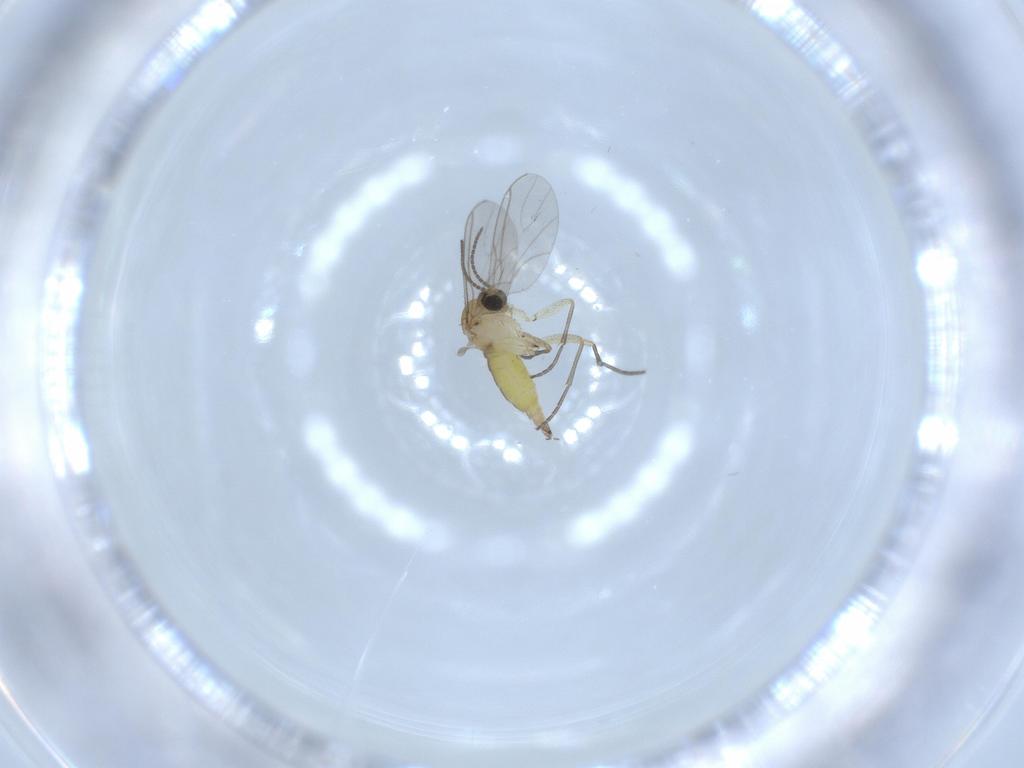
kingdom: Animalia
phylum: Arthropoda
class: Insecta
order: Diptera
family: Sciaridae
